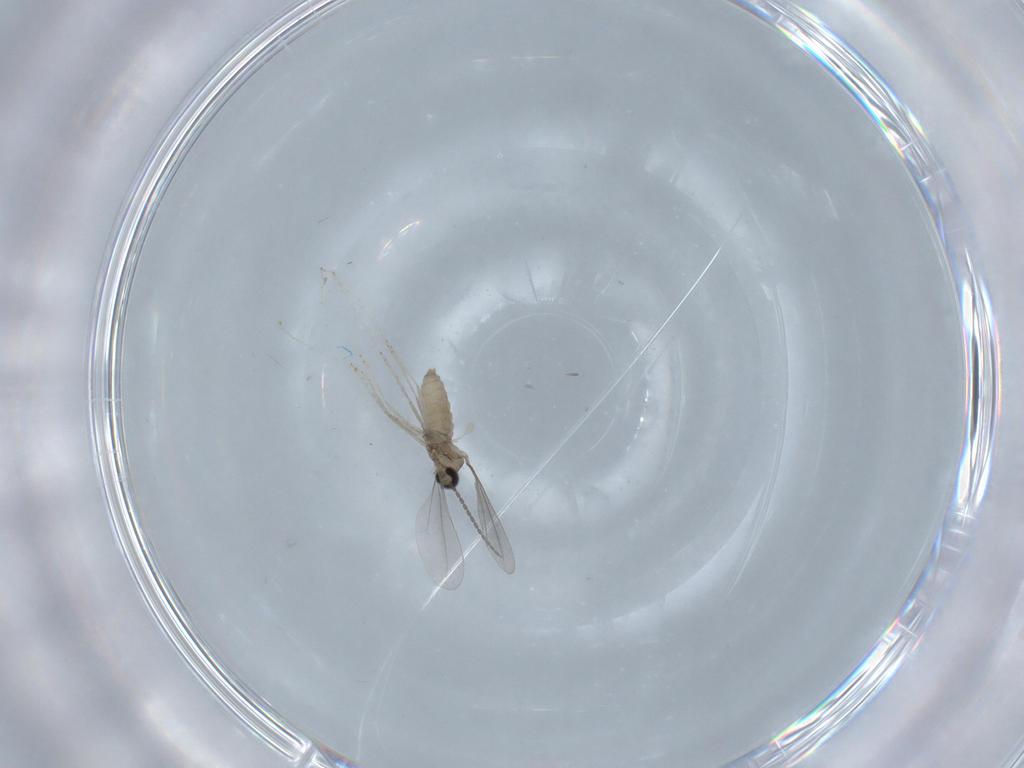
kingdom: Animalia
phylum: Arthropoda
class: Insecta
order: Diptera
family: Cecidomyiidae
